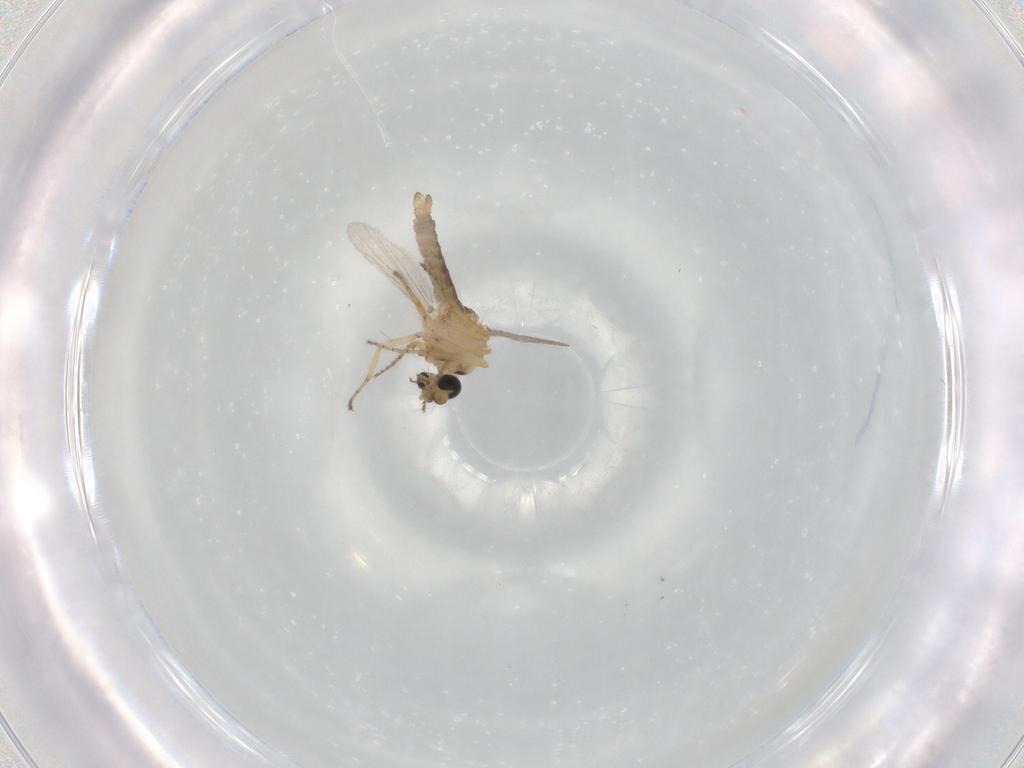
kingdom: Animalia
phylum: Arthropoda
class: Insecta
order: Diptera
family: Ceratopogonidae
